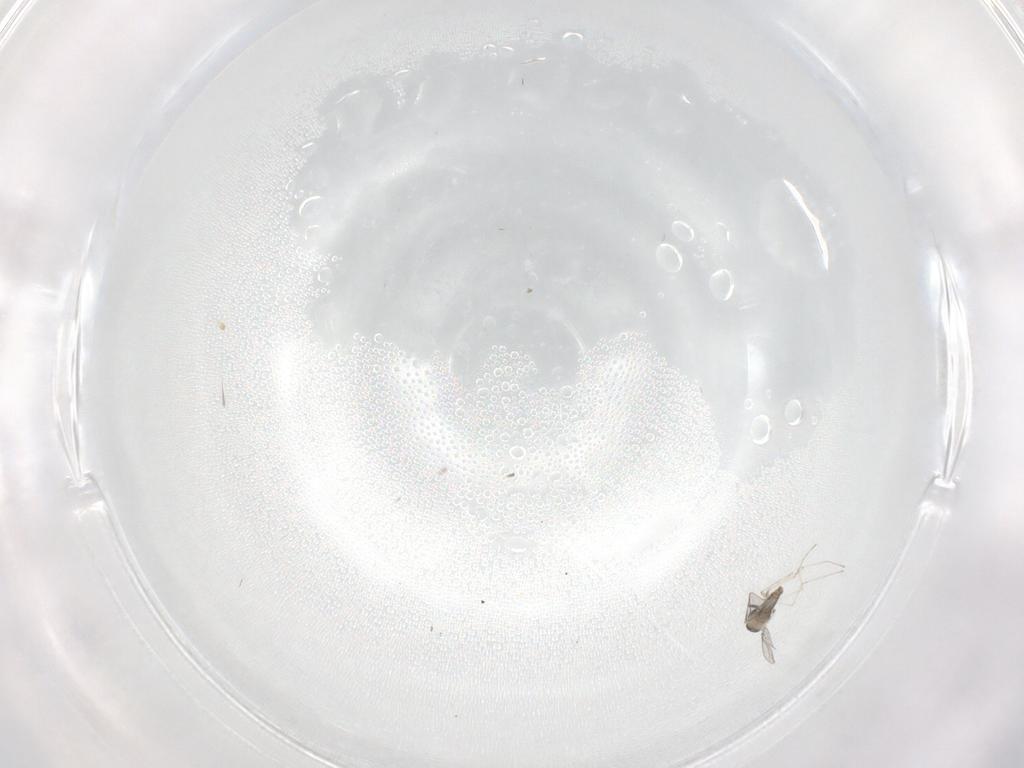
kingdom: Animalia
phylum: Arthropoda
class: Insecta
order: Diptera
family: Cecidomyiidae
